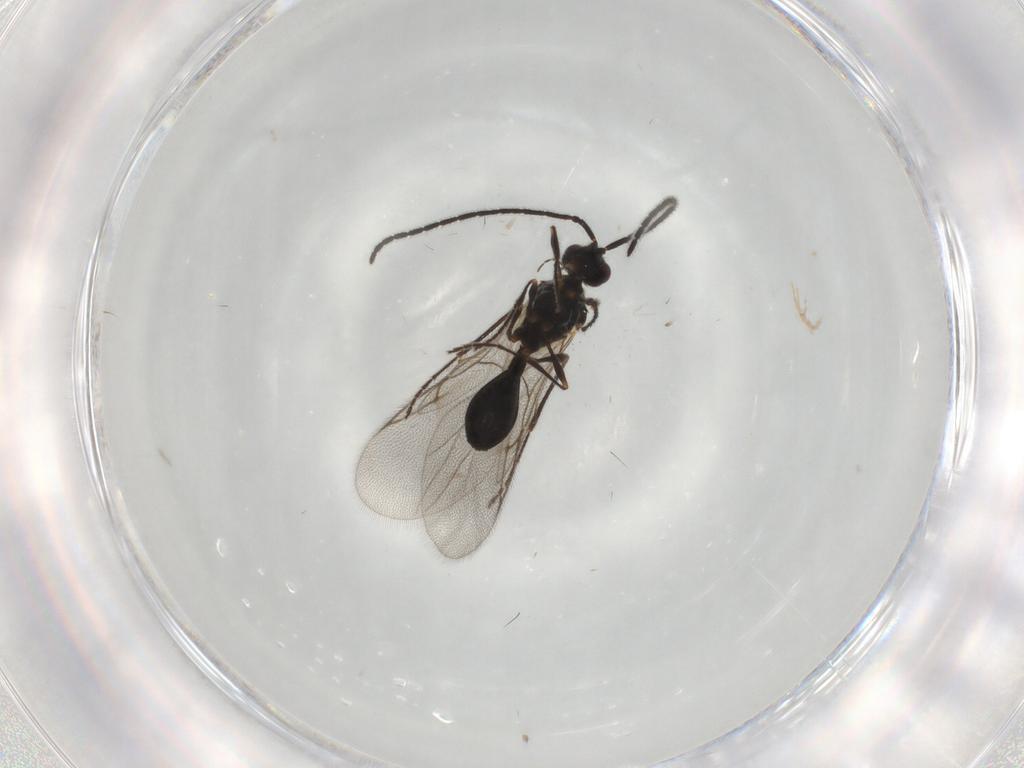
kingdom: Animalia
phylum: Arthropoda
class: Insecta
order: Hymenoptera
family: Diapriidae
